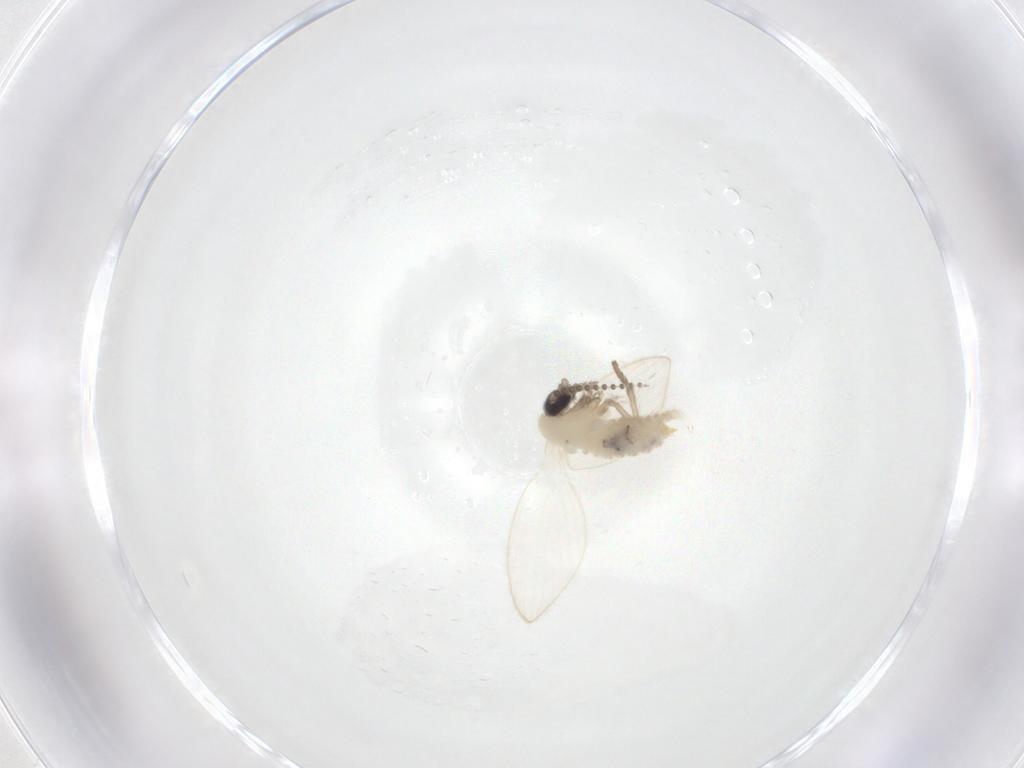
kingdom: Animalia
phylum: Arthropoda
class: Insecta
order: Diptera
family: Psychodidae
